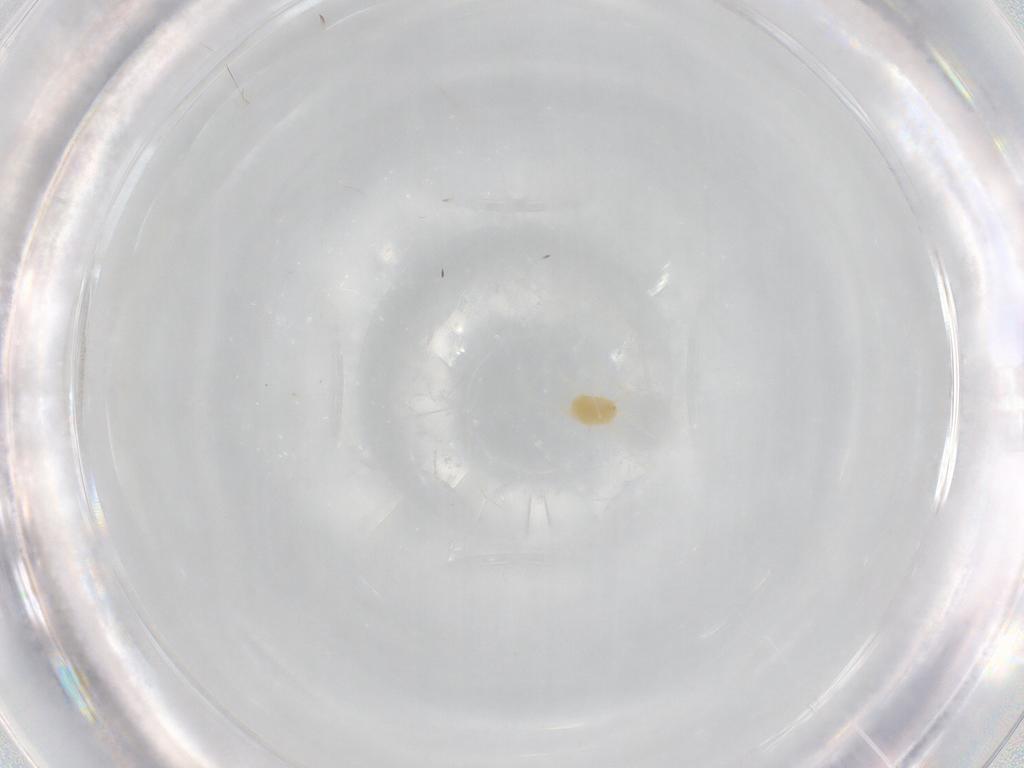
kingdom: Animalia
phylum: Arthropoda
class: Arachnida
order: Trombidiformes
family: Tetranychidae
